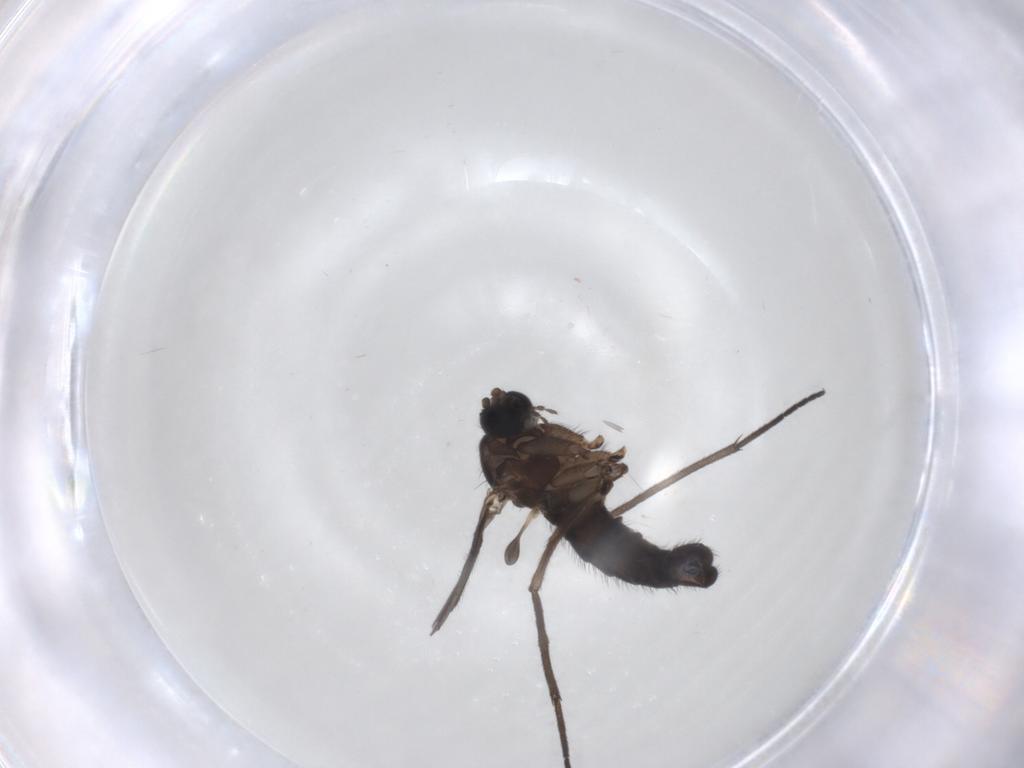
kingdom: Animalia
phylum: Arthropoda
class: Insecta
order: Diptera
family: Sciaridae
